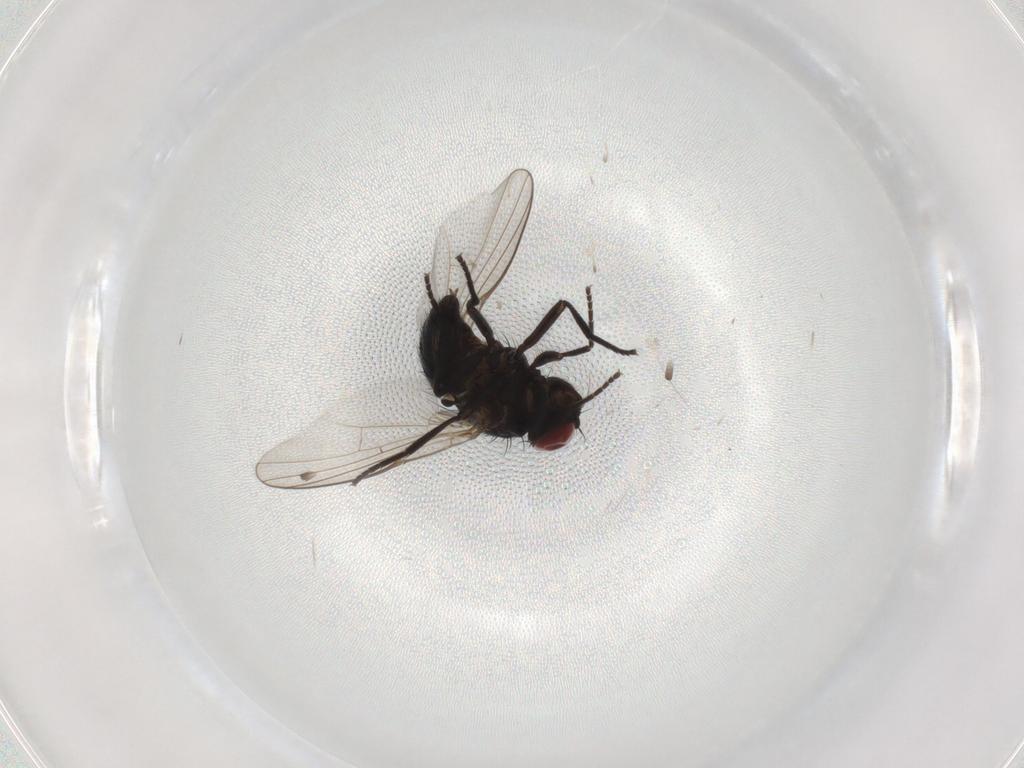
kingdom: Animalia
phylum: Arthropoda
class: Insecta
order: Diptera
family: Agromyzidae
